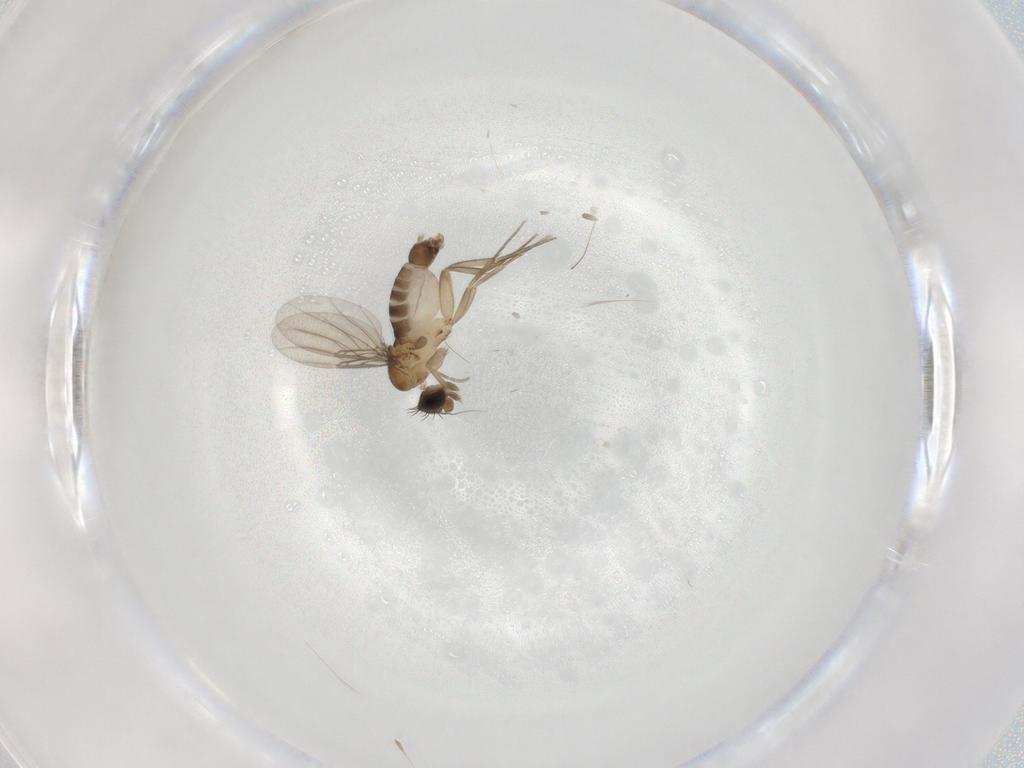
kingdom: Animalia
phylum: Arthropoda
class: Insecta
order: Diptera
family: Phoridae
